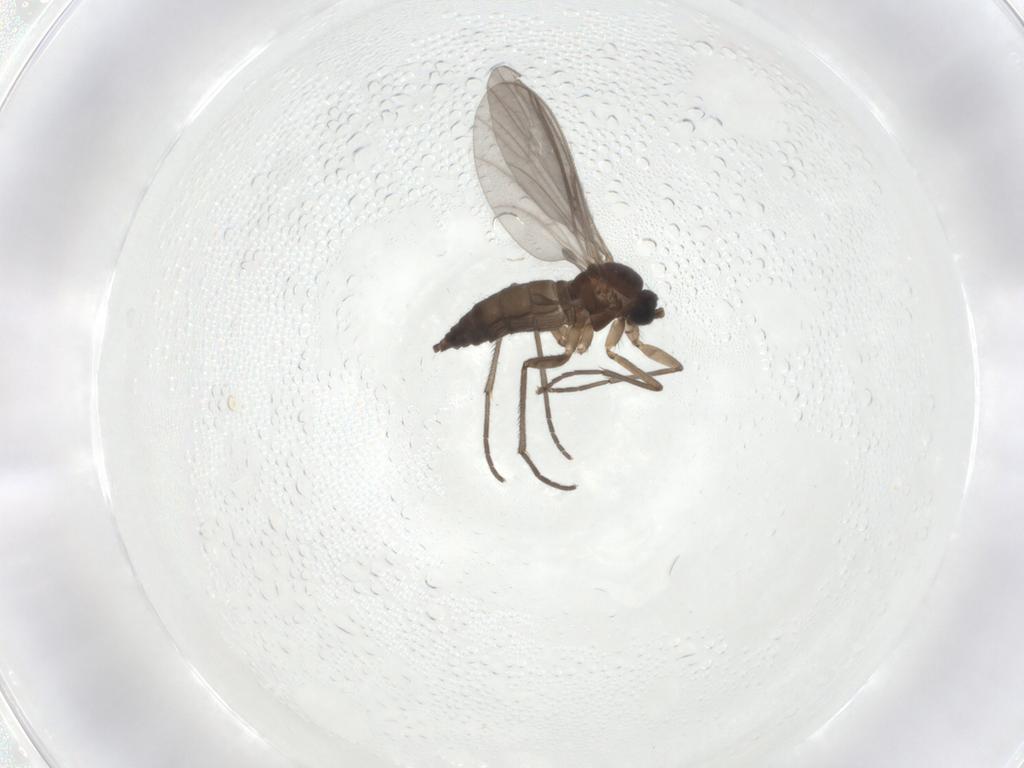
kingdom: Animalia
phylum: Arthropoda
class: Insecta
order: Diptera
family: Sciaridae
